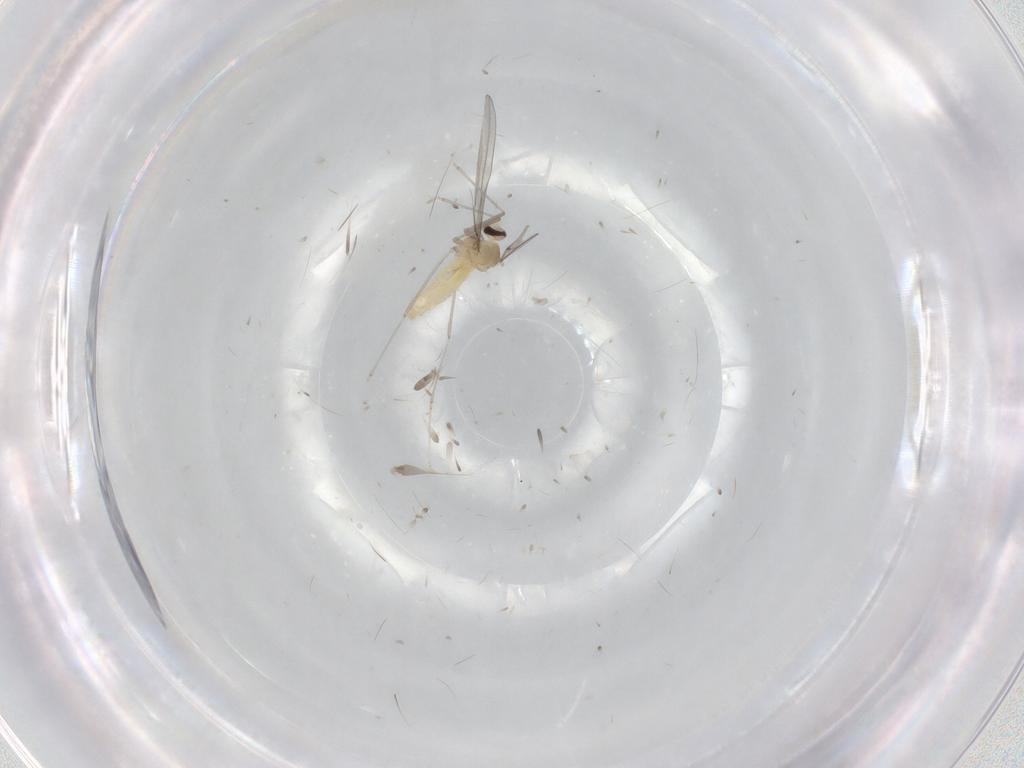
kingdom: Animalia
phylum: Arthropoda
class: Insecta
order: Diptera
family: Cecidomyiidae
